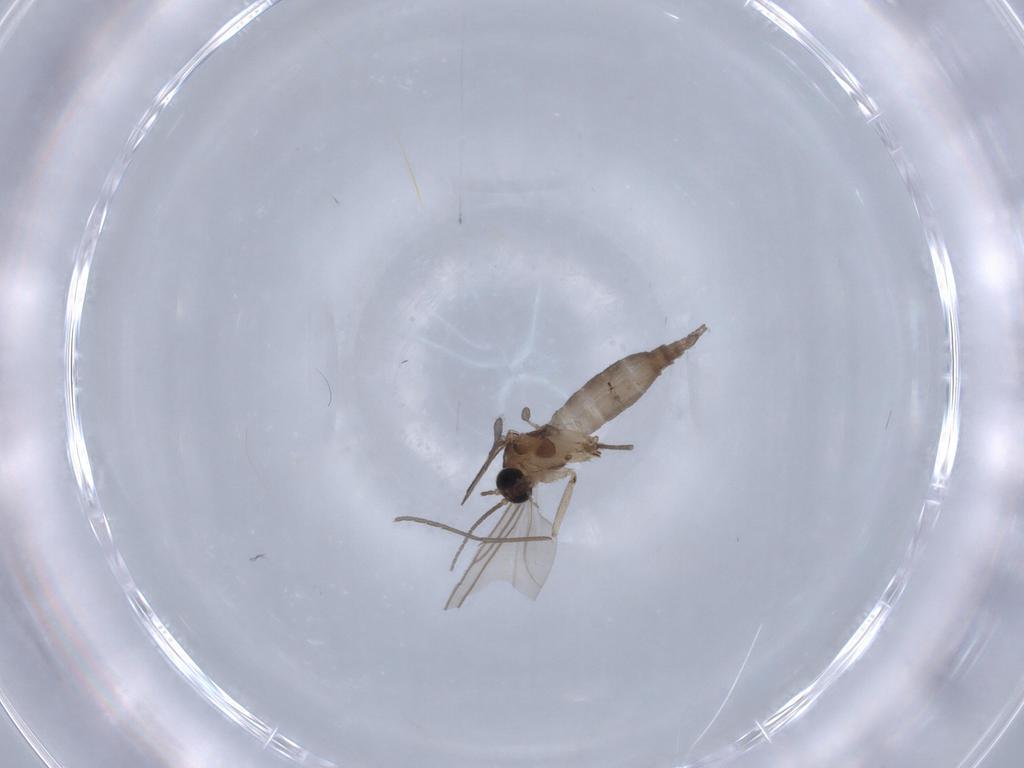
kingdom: Animalia
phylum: Arthropoda
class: Insecta
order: Diptera
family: Sciaridae
